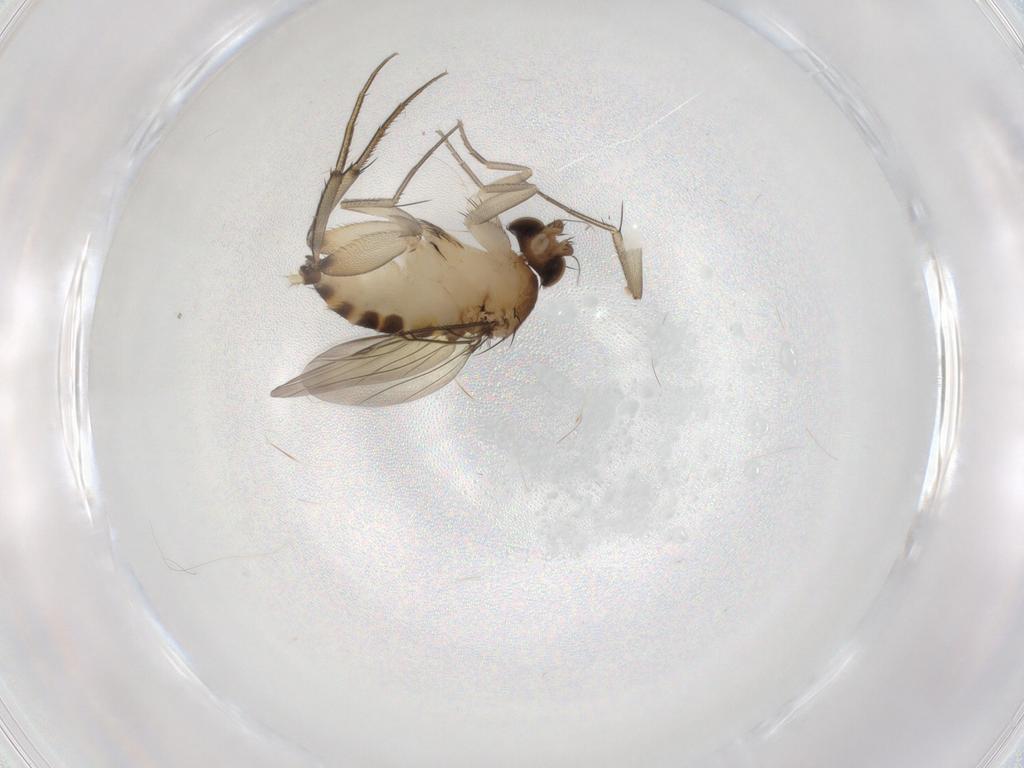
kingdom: Animalia
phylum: Arthropoda
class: Insecta
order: Diptera
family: Phoridae
